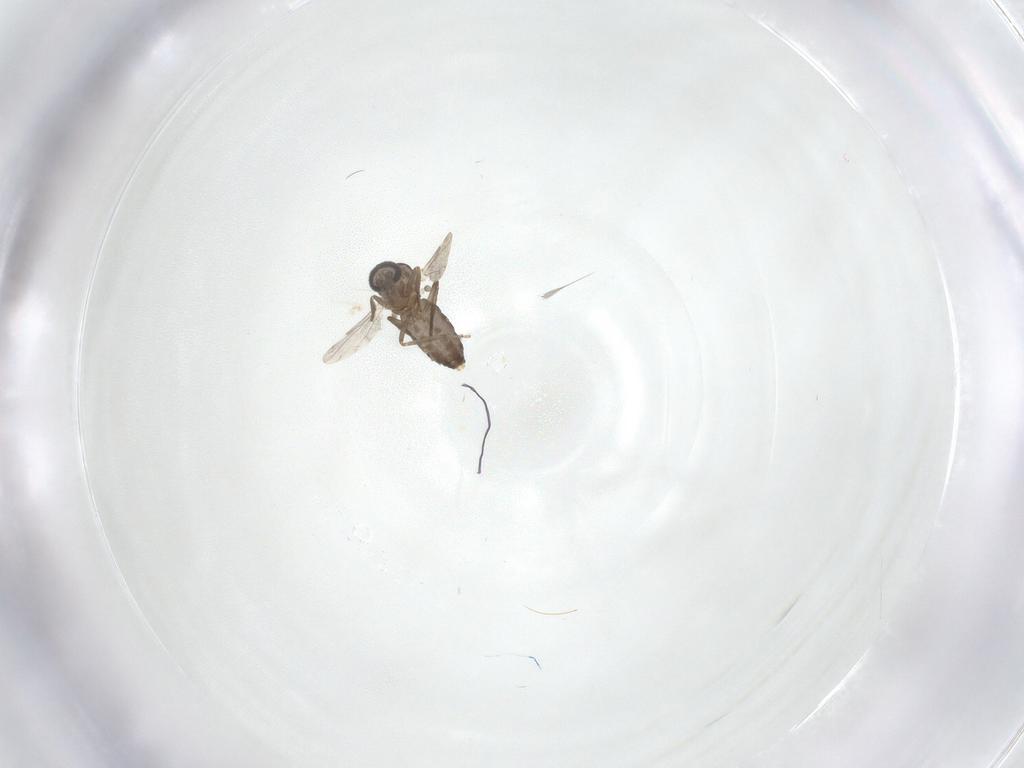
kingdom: Animalia
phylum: Arthropoda
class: Insecta
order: Diptera
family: Ceratopogonidae
